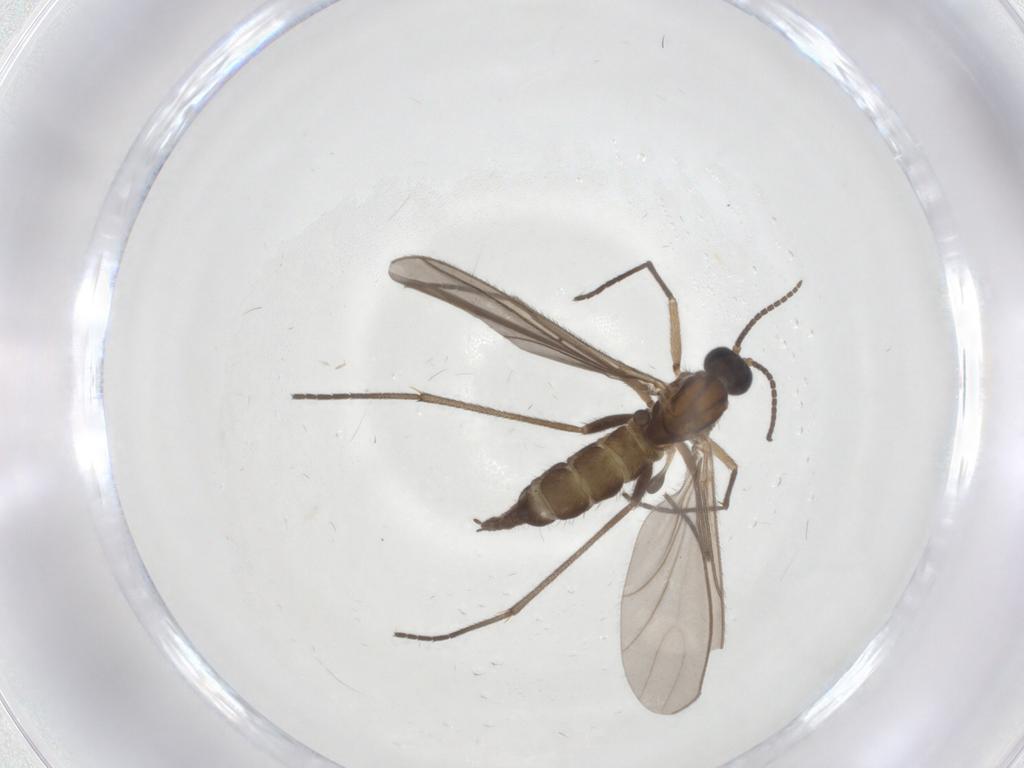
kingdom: Animalia
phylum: Arthropoda
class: Insecta
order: Diptera
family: Sciaridae
